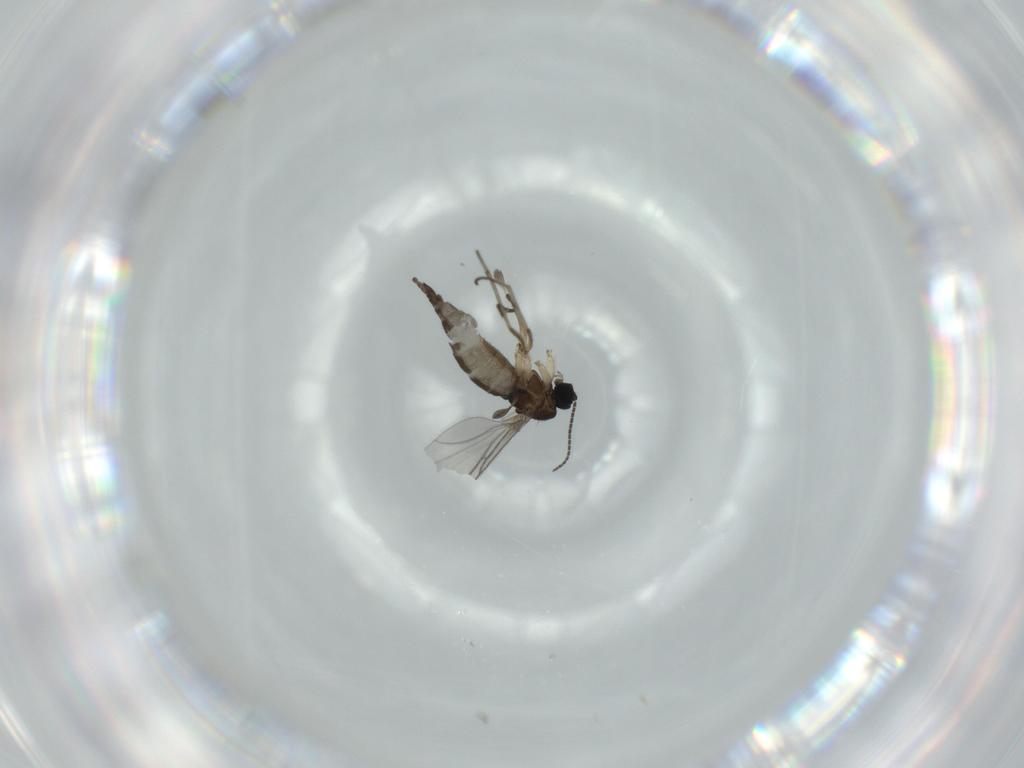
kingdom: Animalia
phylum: Arthropoda
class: Insecta
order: Diptera
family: Sciaridae
